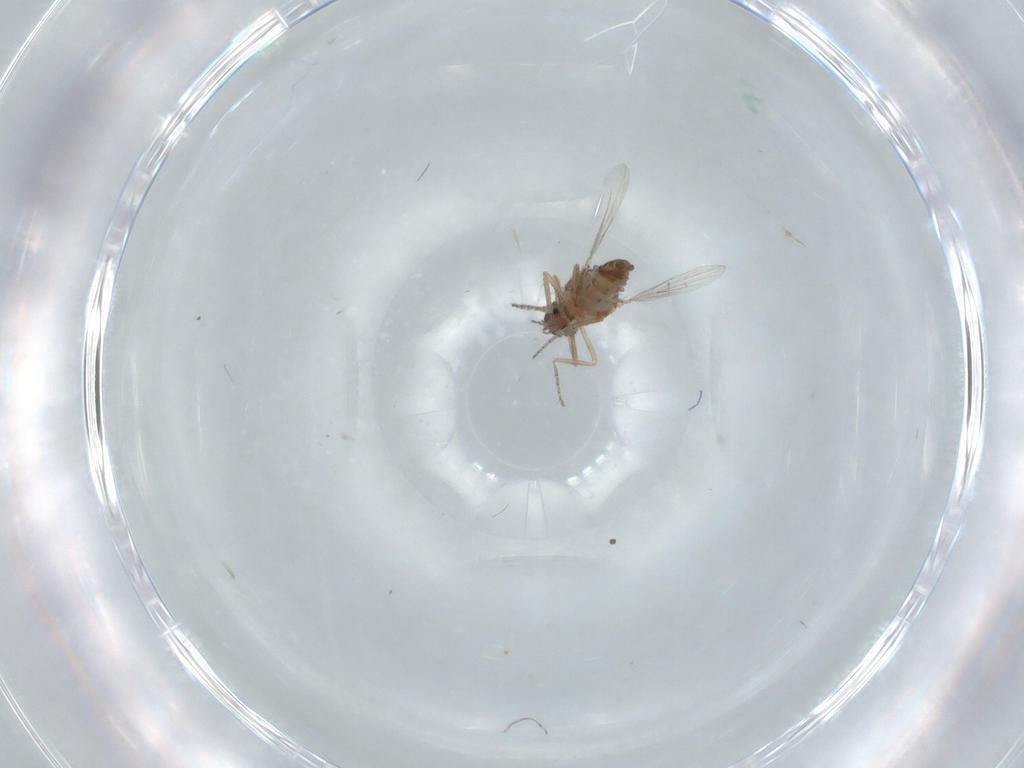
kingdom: Animalia
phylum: Arthropoda
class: Insecta
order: Diptera
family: Ceratopogonidae
